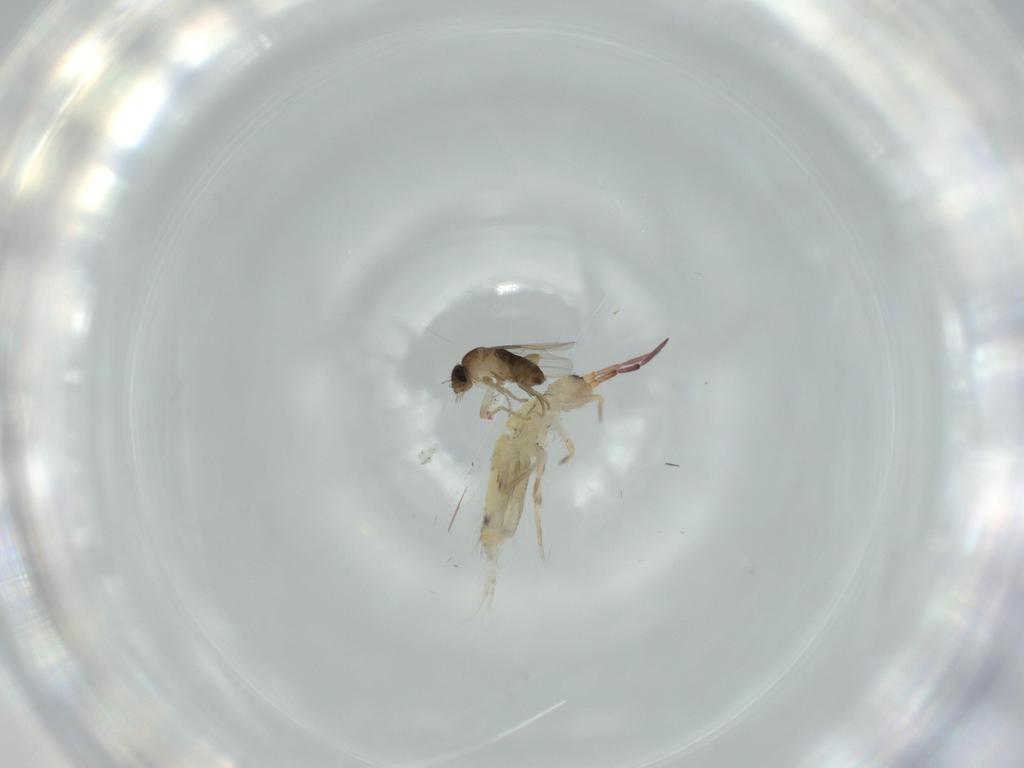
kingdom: Animalia
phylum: Arthropoda
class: Collembola
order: Entomobryomorpha
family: Entomobryidae
